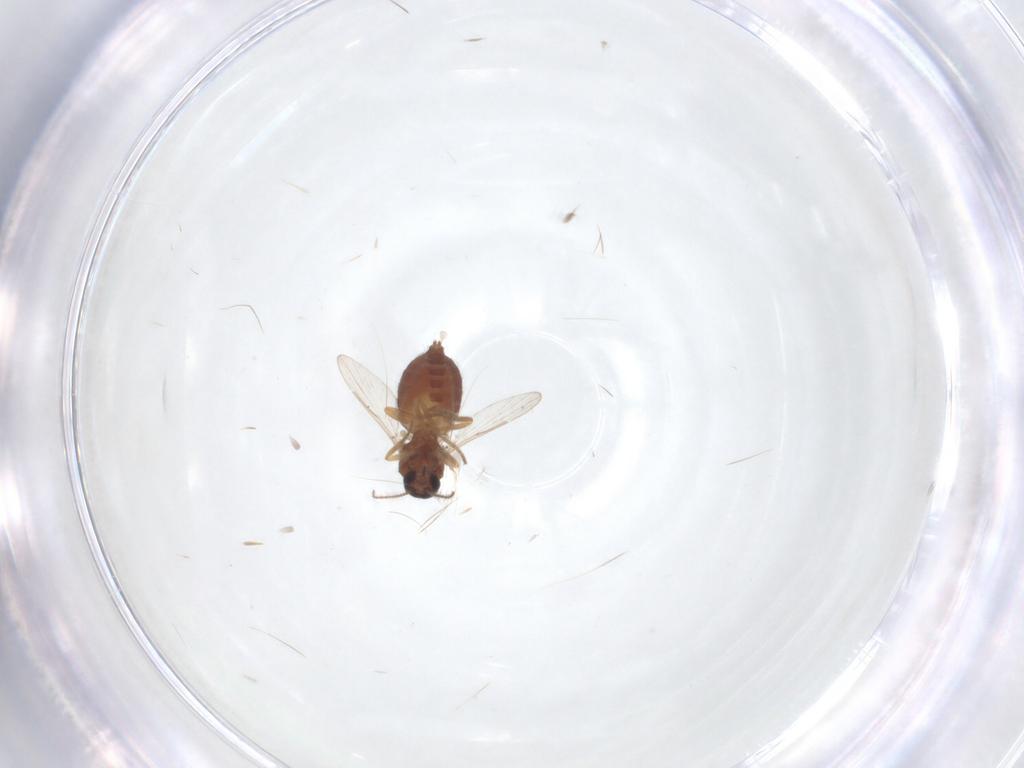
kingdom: Animalia
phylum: Arthropoda
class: Insecta
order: Diptera
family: Ceratopogonidae
